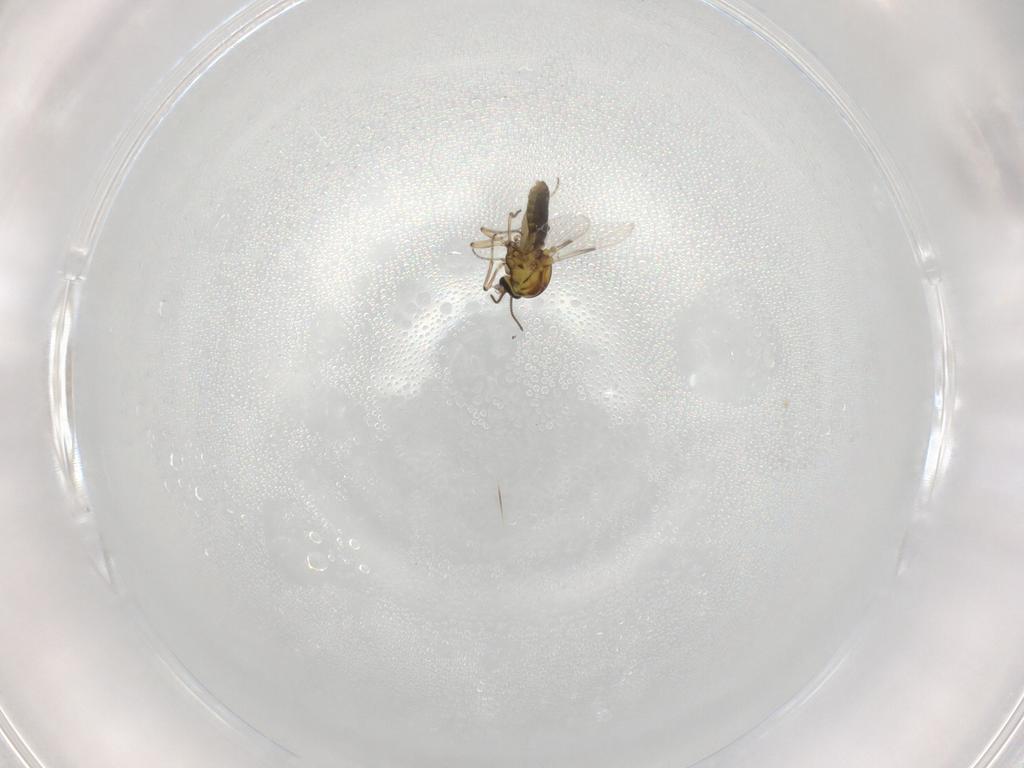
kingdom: Animalia
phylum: Arthropoda
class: Insecta
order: Diptera
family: Ceratopogonidae
